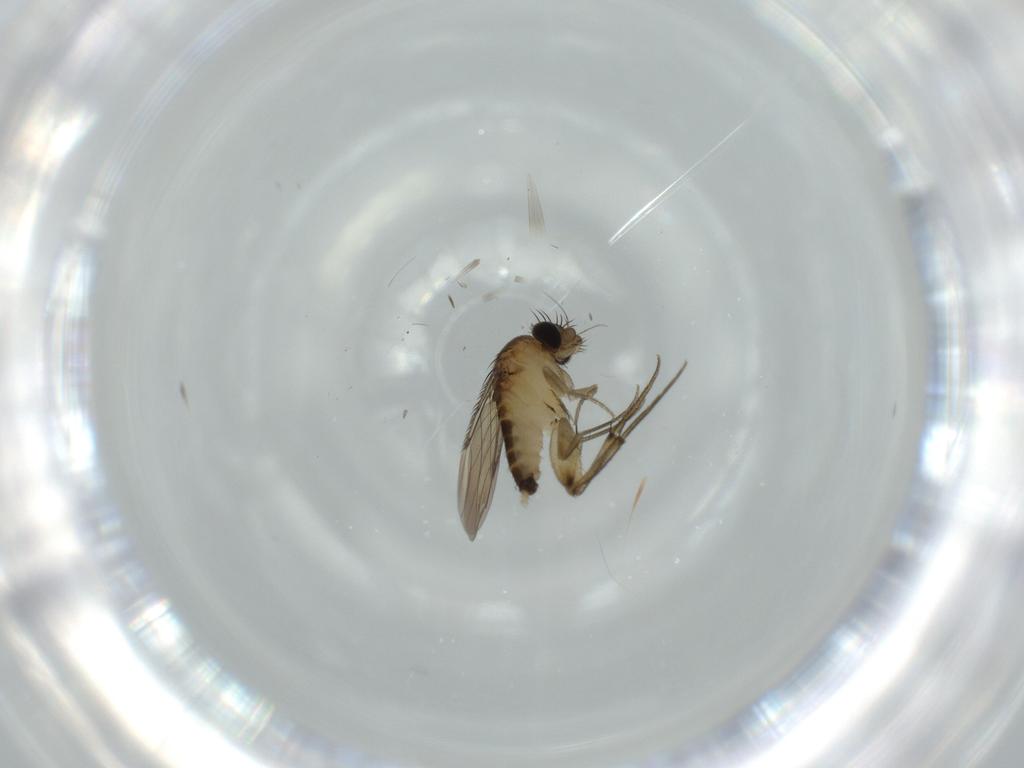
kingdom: Animalia
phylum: Arthropoda
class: Insecta
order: Diptera
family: Phoridae
